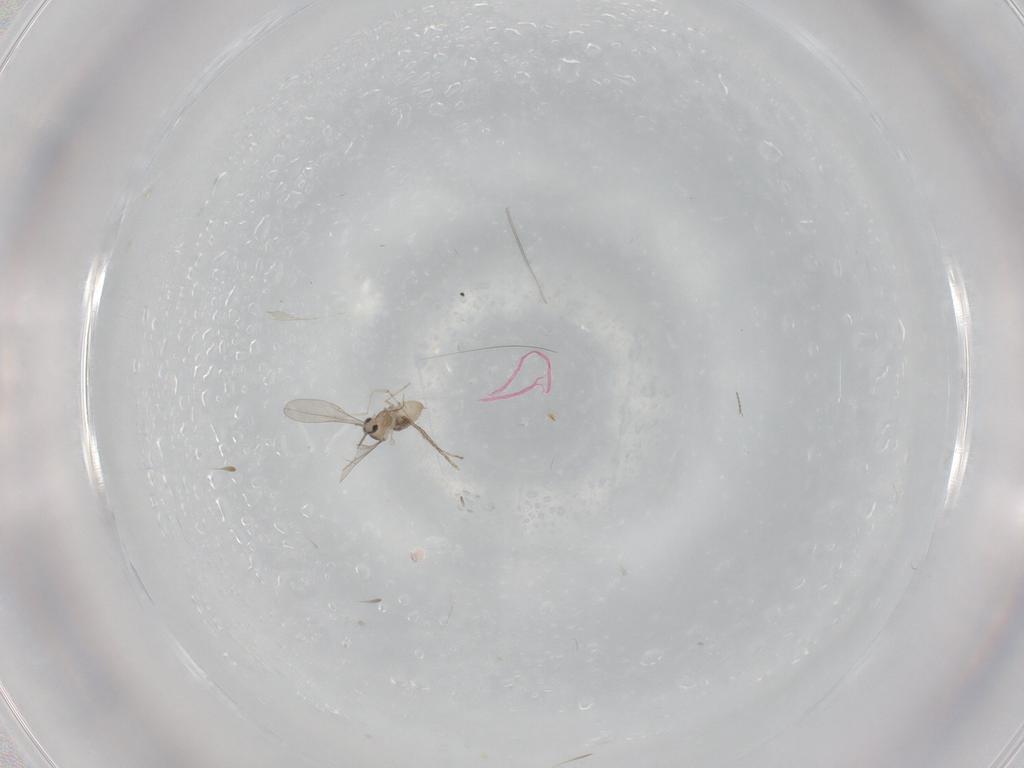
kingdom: Animalia
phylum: Arthropoda
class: Insecta
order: Diptera
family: Cecidomyiidae
